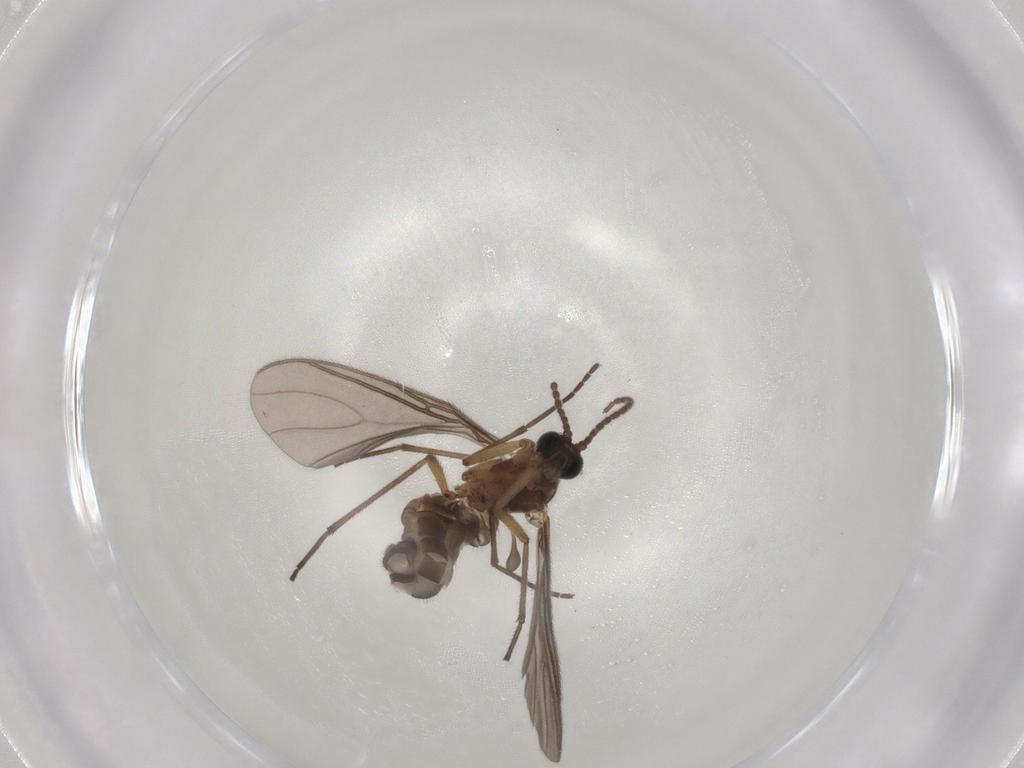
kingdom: Animalia
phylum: Arthropoda
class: Insecta
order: Diptera
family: Sciaridae
